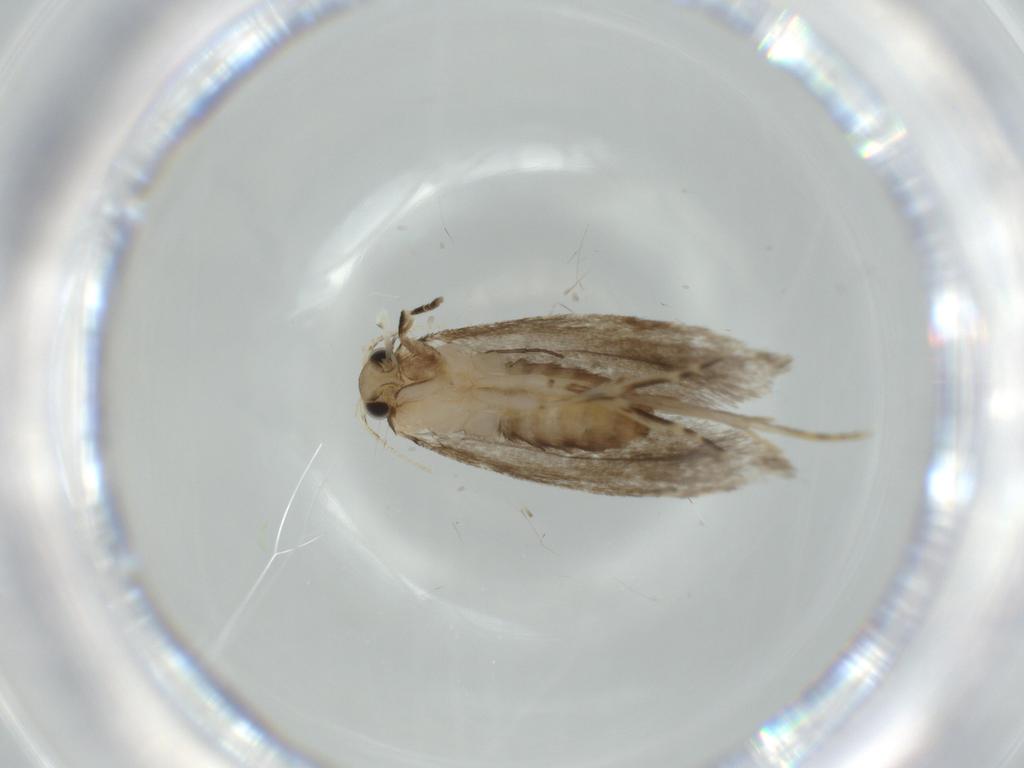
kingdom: Animalia
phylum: Arthropoda
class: Insecta
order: Lepidoptera
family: Tineidae
